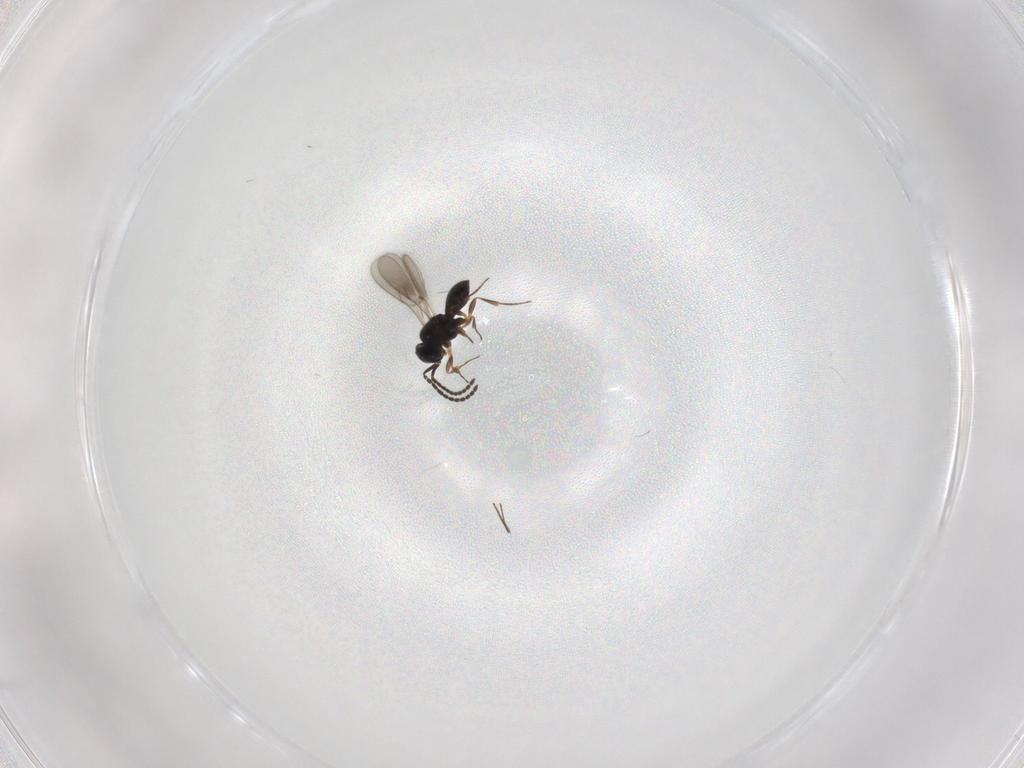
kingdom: Animalia
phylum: Arthropoda
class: Insecta
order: Hymenoptera
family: Scelionidae
